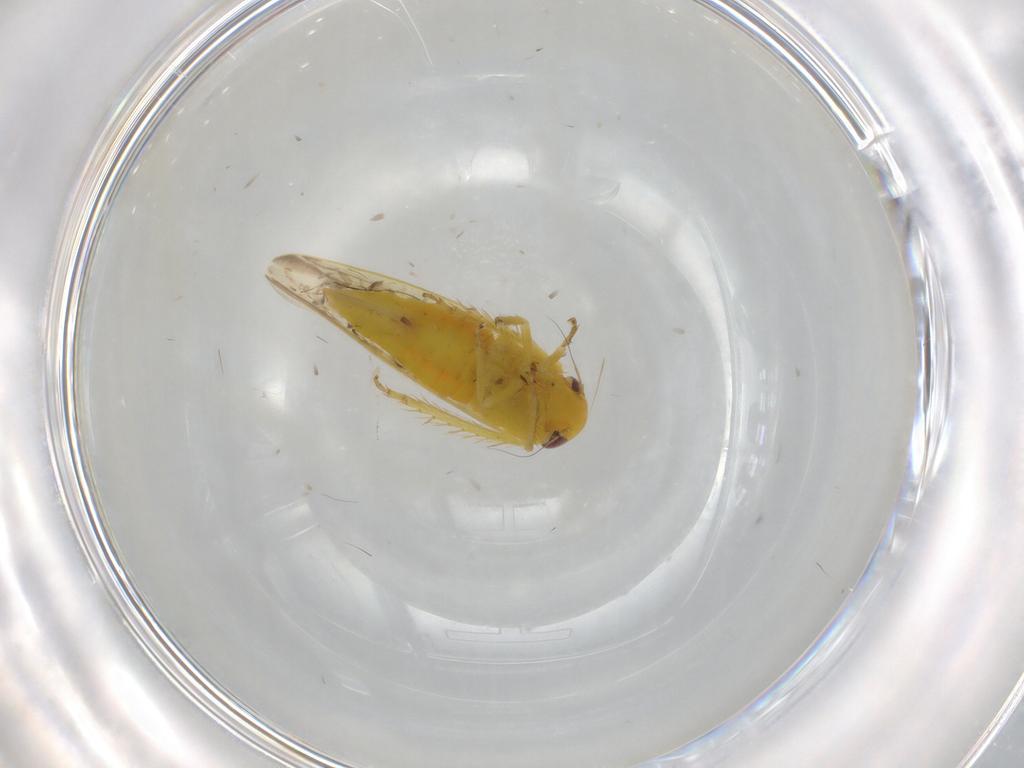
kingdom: Animalia
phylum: Arthropoda
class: Insecta
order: Hemiptera
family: Cicadellidae
